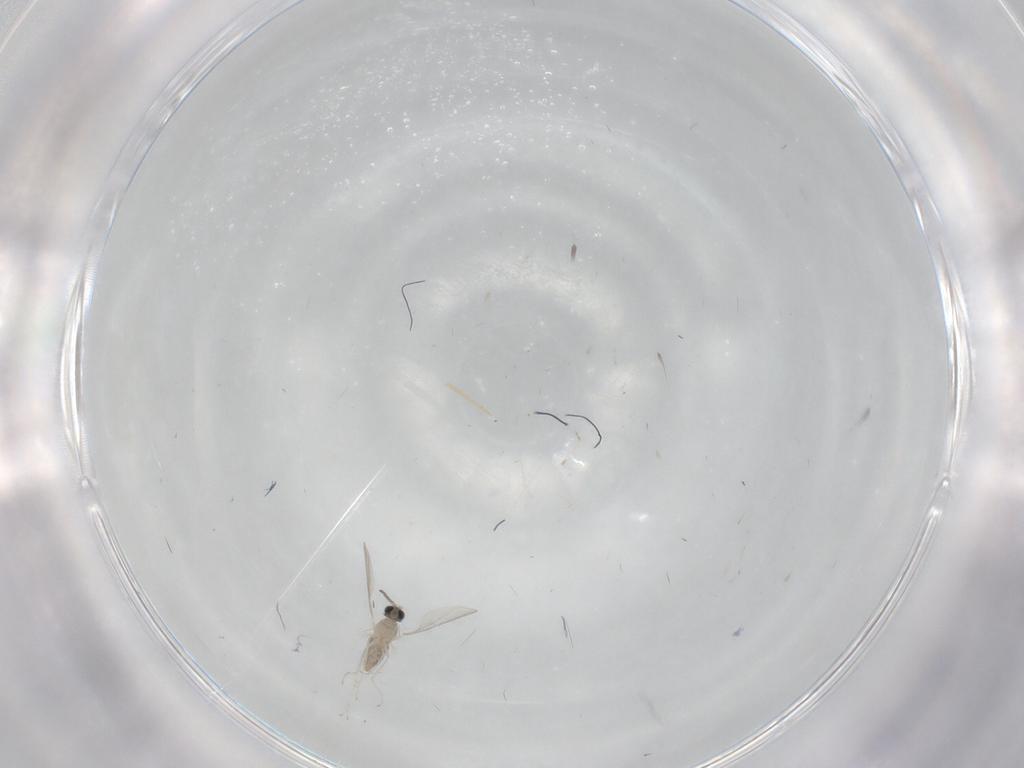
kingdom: Animalia
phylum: Arthropoda
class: Insecta
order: Diptera
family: Cecidomyiidae
